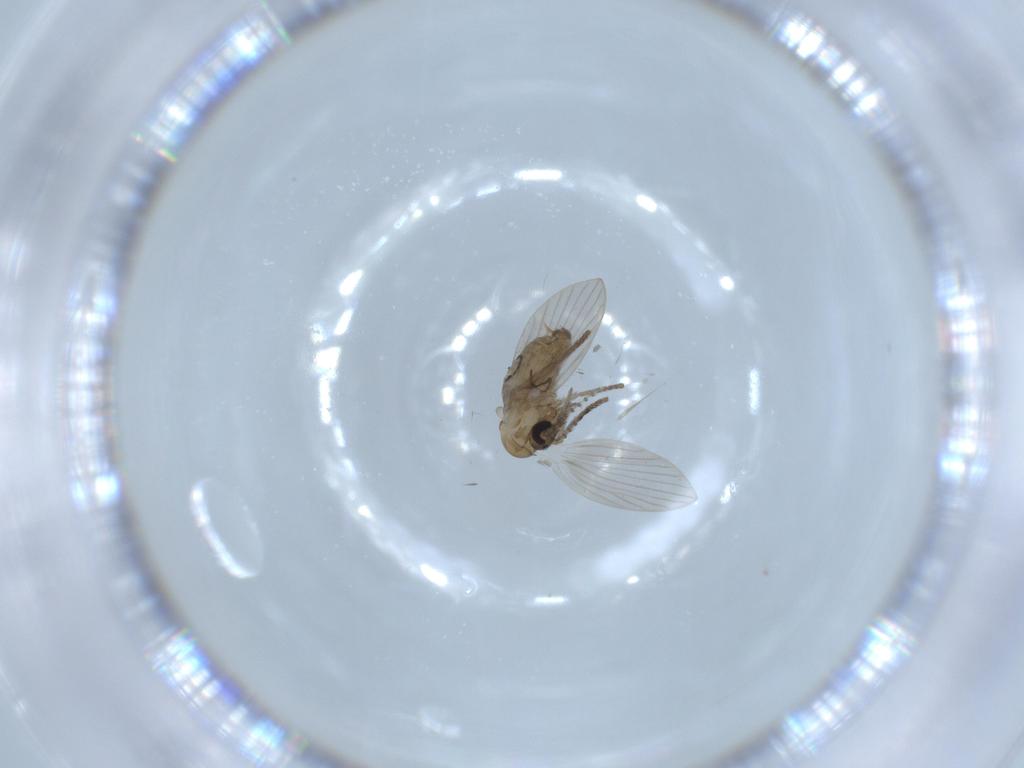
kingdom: Animalia
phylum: Arthropoda
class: Insecta
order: Diptera
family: Psychodidae
